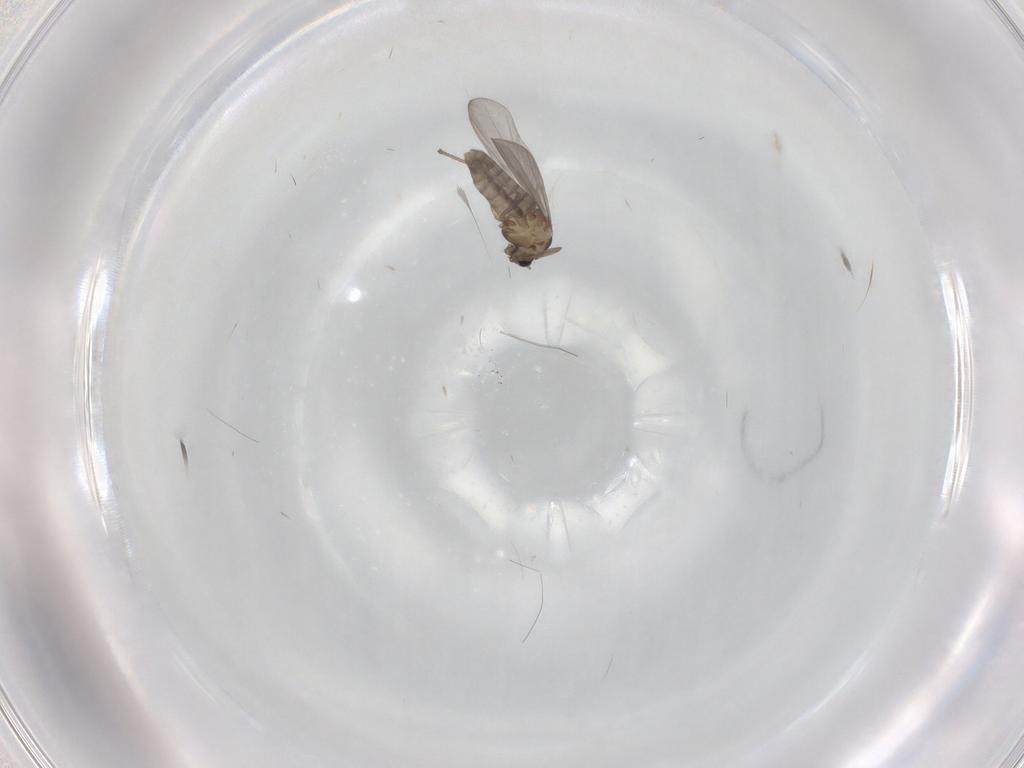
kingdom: Animalia
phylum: Arthropoda
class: Insecta
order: Diptera
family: Chironomidae
